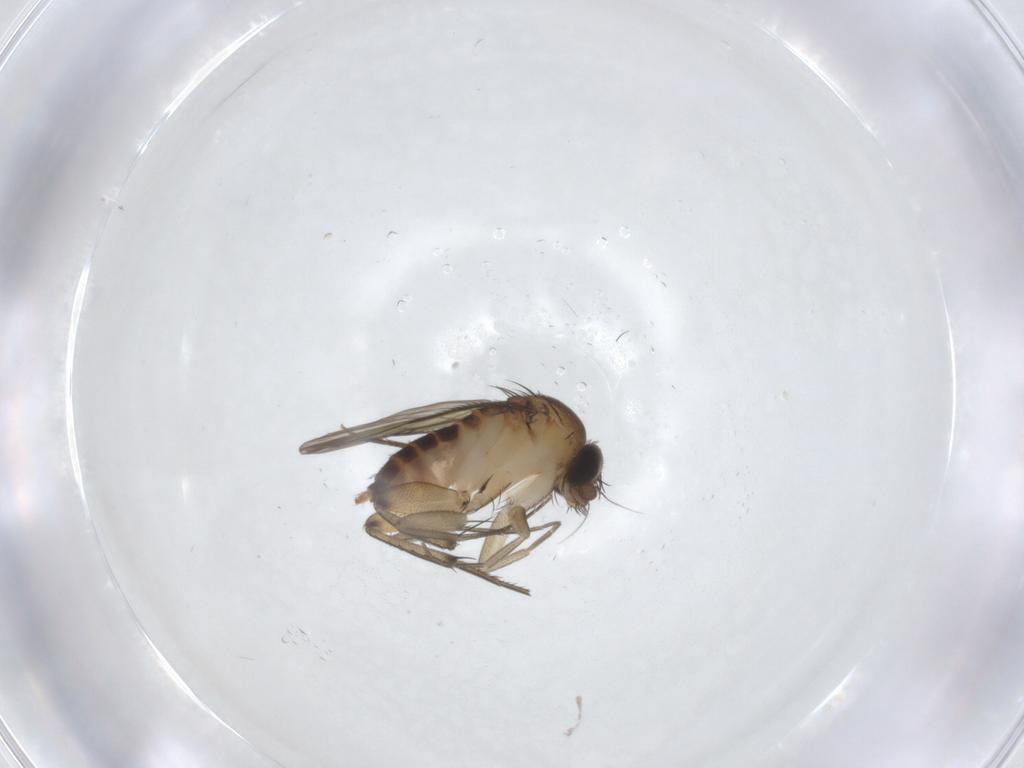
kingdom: Animalia
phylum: Arthropoda
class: Insecta
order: Diptera
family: Phoridae
